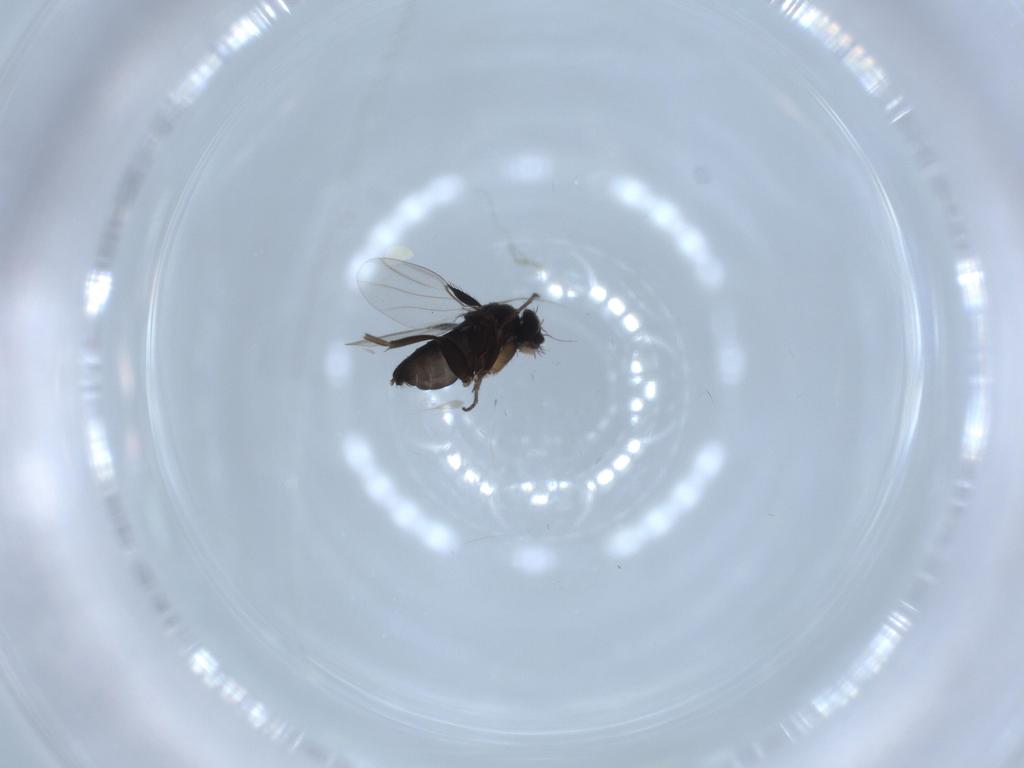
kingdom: Animalia
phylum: Arthropoda
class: Insecta
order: Diptera
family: Phoridae
